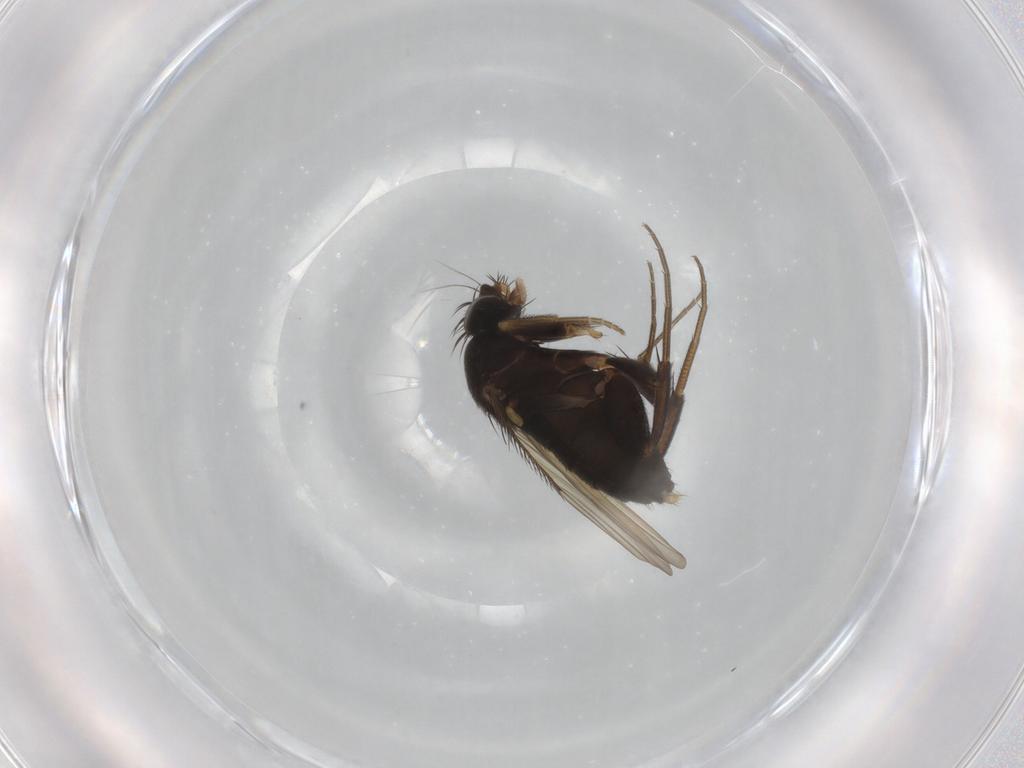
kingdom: Animalia
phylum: Arthropoda
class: Insecta
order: Diptera
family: Phoridae
